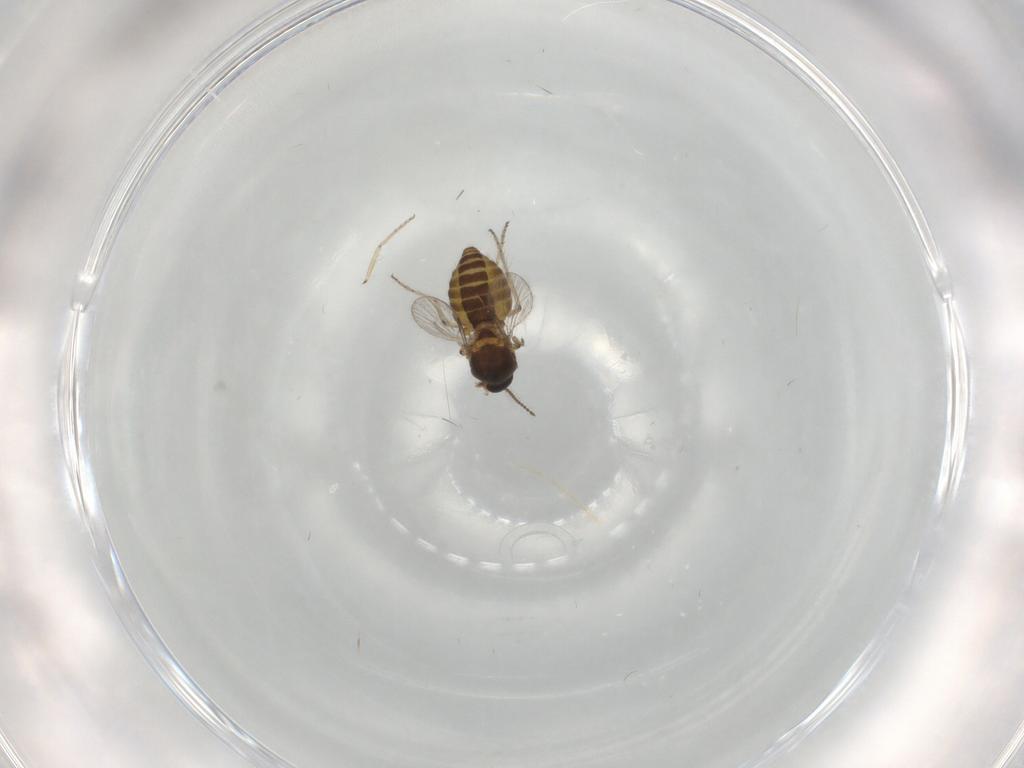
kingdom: Animalia
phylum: Arthropoda
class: Insecta
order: Diptera
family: Ceratopogonidae
